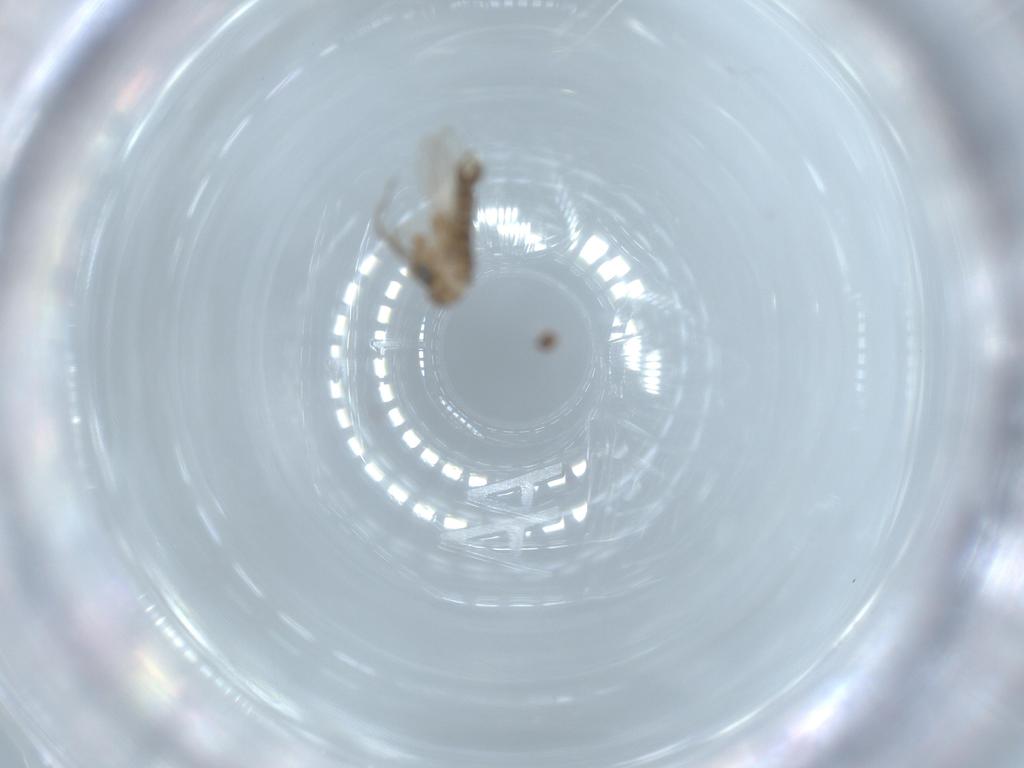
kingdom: Animalia
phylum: Arthropoda
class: Insecta
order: Diptera
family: Psychodidae
